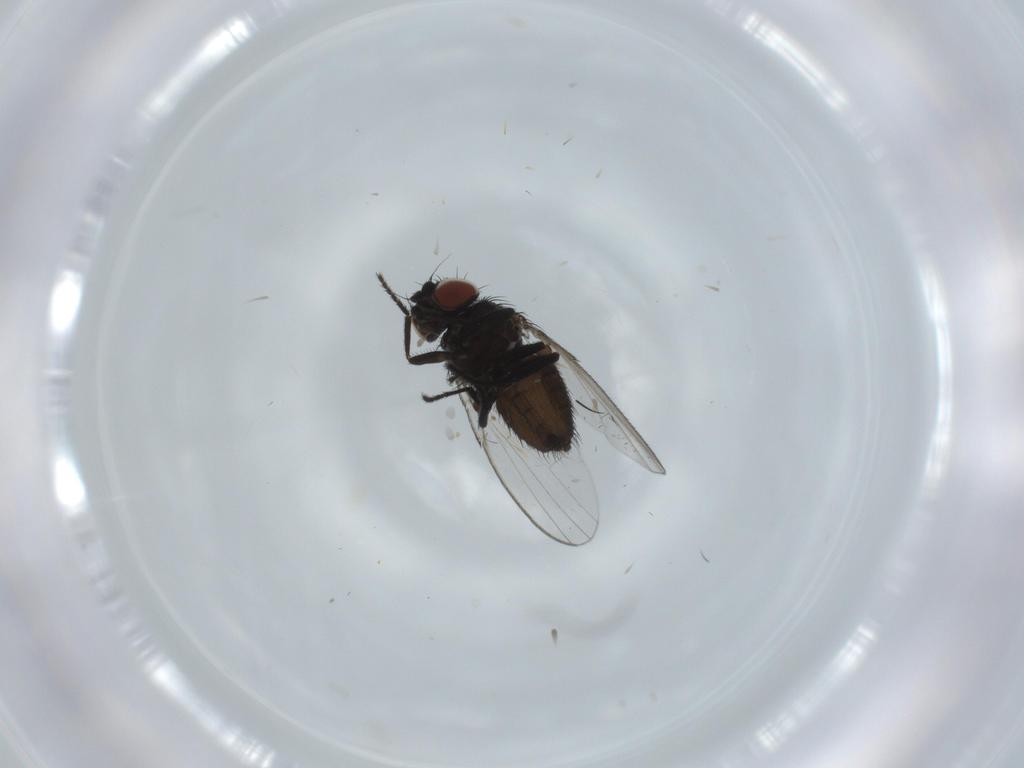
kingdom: Animalia
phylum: Arthropoda
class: Insecta
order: Diptera
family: Milichiidae
